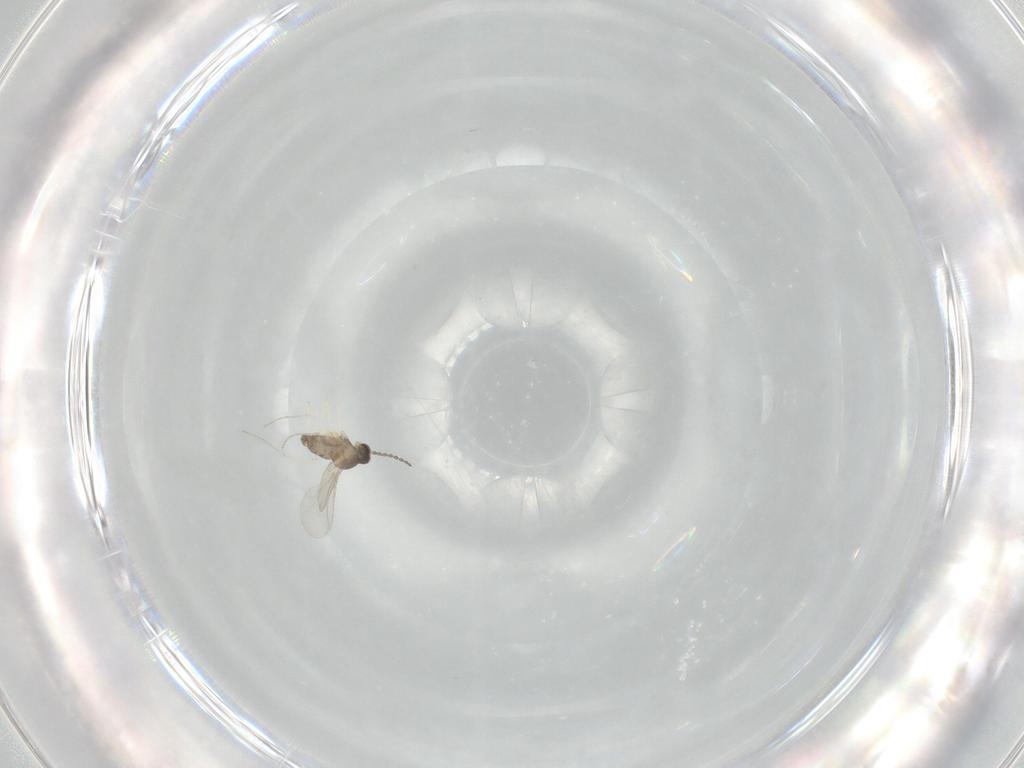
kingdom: Animalia
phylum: Arthropoda
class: Insecta
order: Diptera
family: Cecidomyiidae
